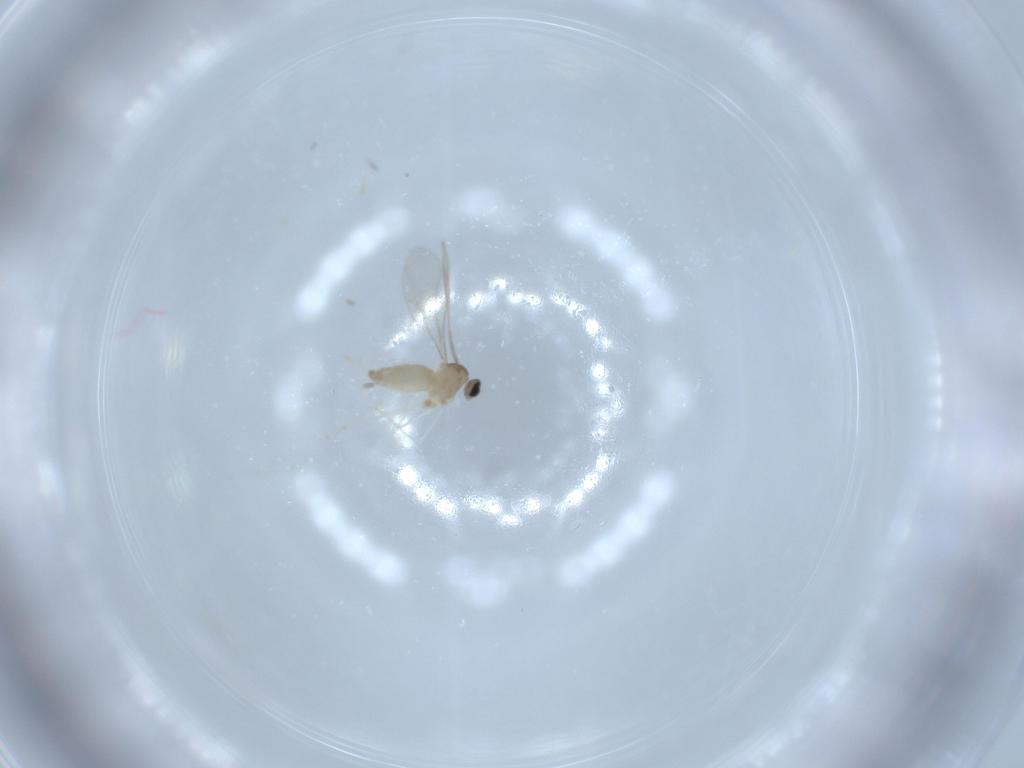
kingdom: Animalia
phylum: Arthropoda
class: Insecta
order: Diptera
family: Cecidomyiidae
